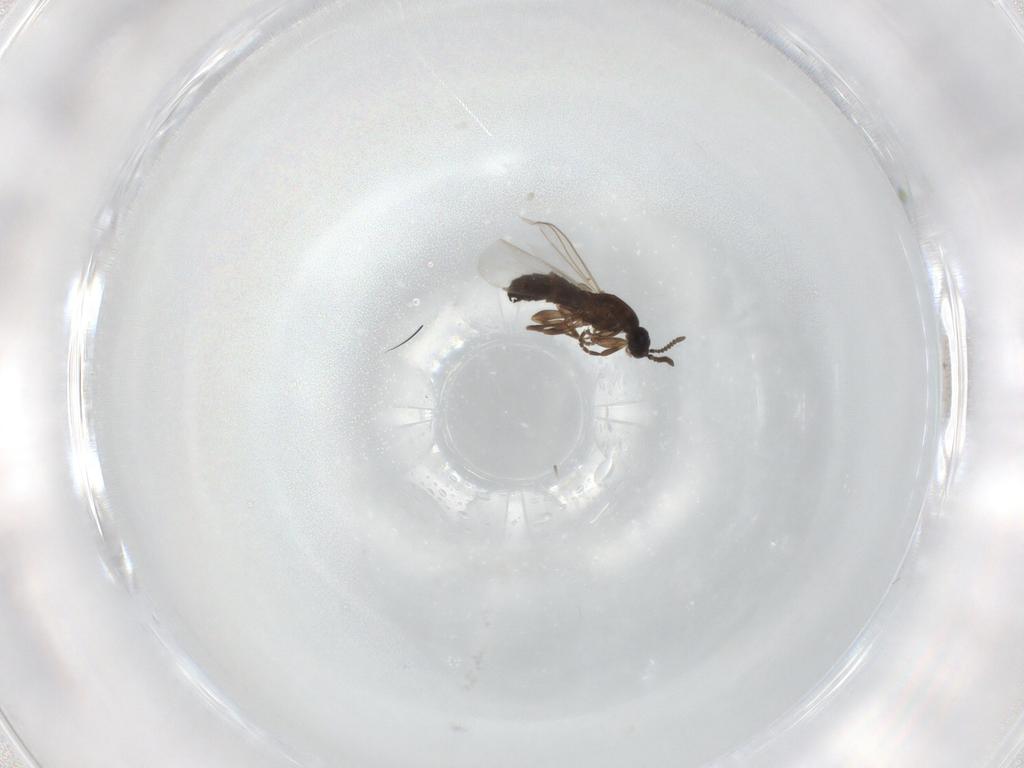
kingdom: Animalia
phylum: Arthropoda
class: Insecta
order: Diptera
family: Scatopsidae
